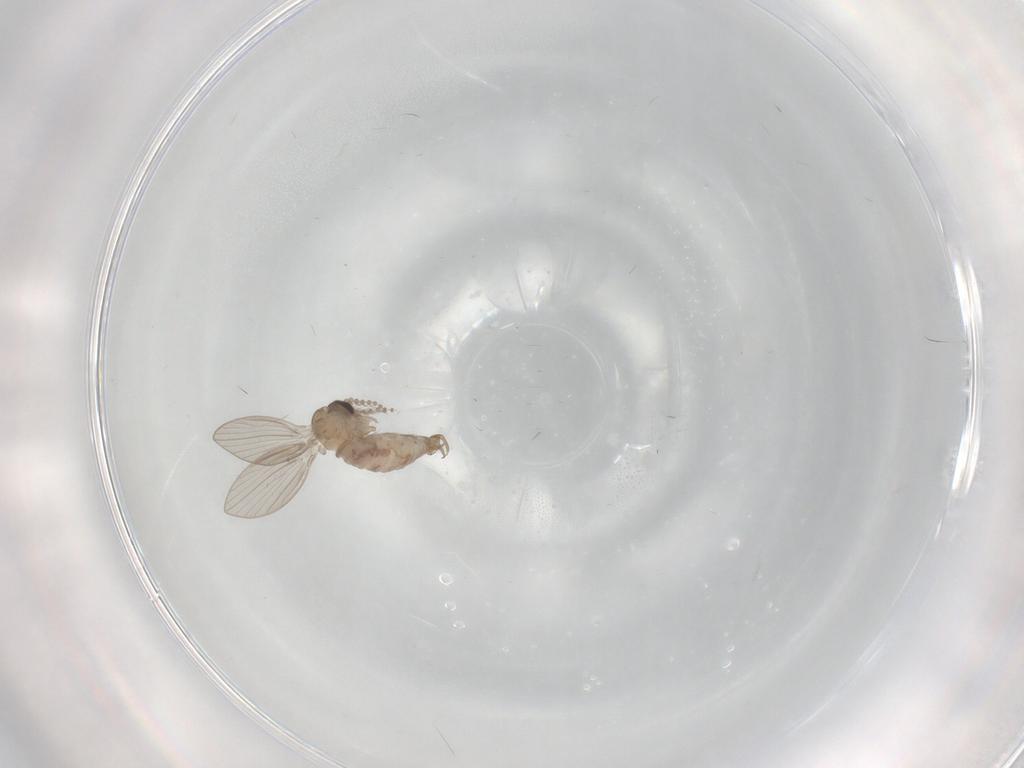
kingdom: Animalia
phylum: Arthropoda
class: Insecta
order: Diptera
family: Psychodidae
